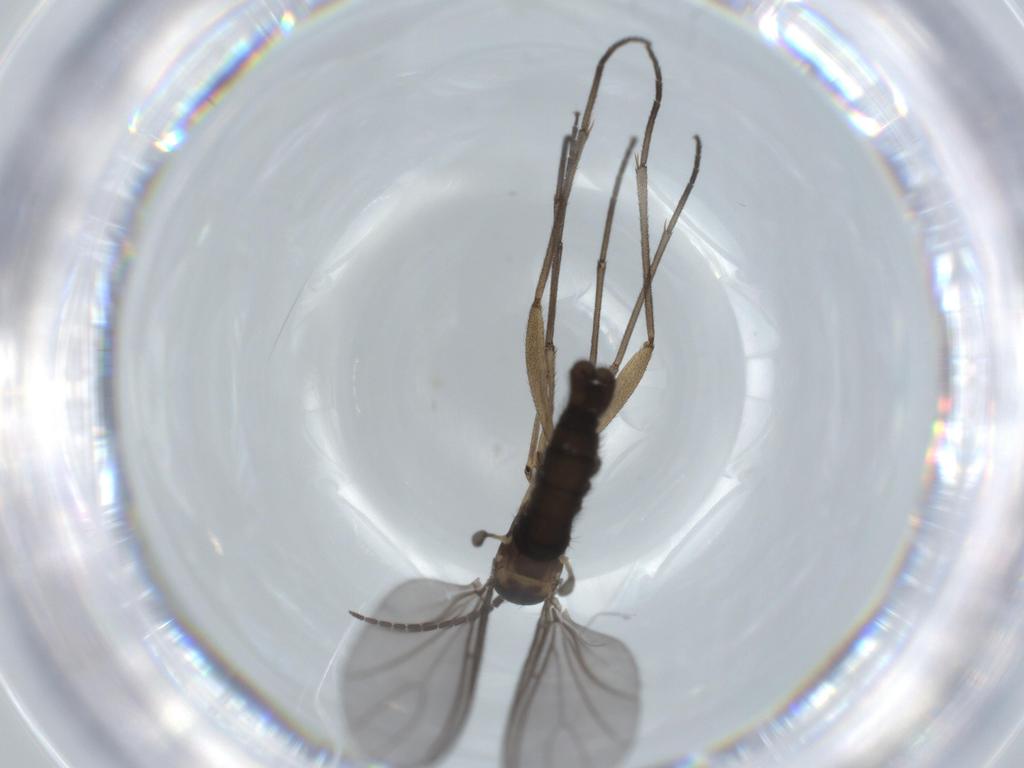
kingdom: Animalia
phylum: Arthropoda
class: Insecta
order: Diptera
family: Sciaridae
